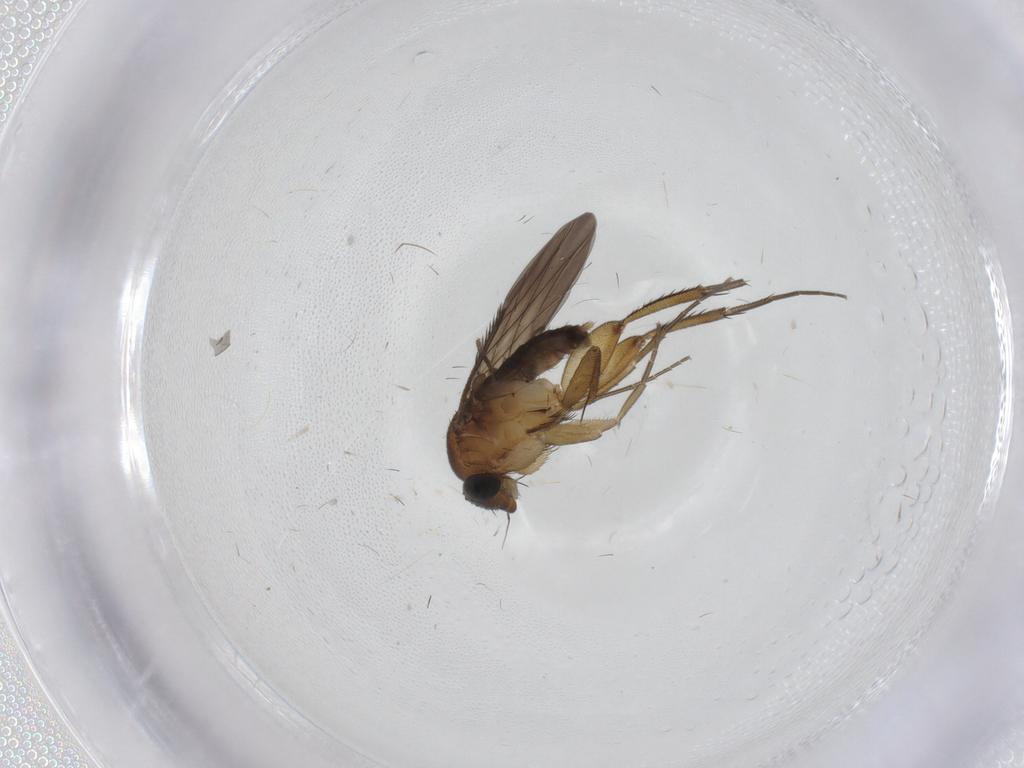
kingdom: Animalia
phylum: Arthropoda
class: Insecta
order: Diptera
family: Phoridae
